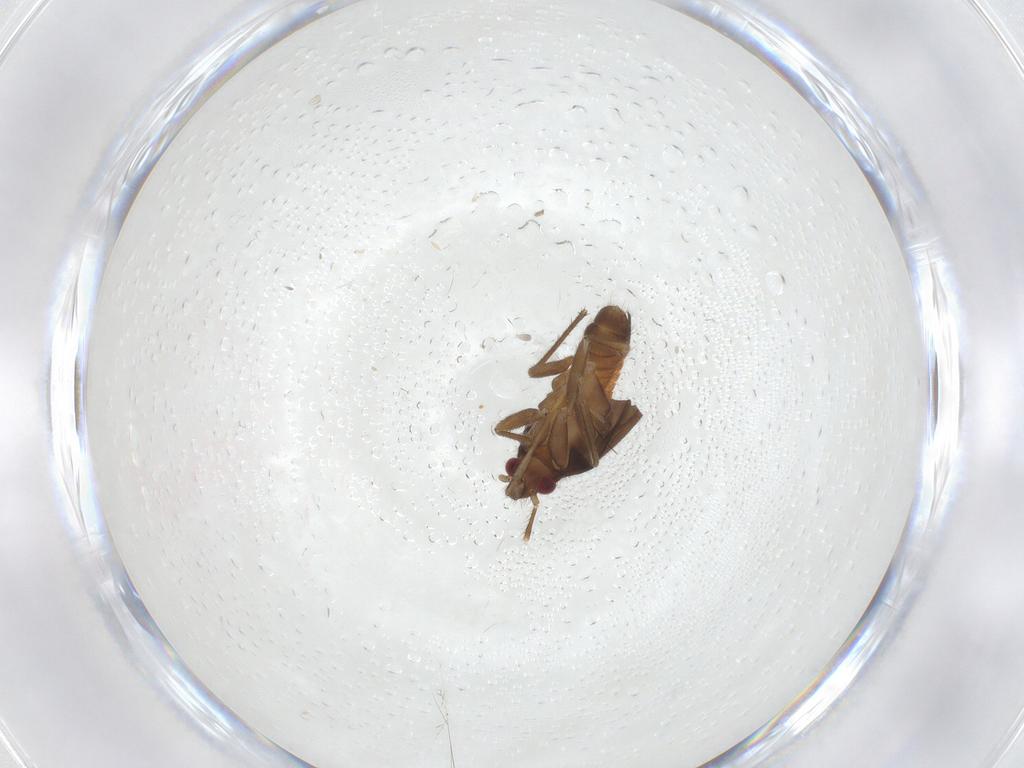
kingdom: Animalia
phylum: Arthropoda
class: Insecta
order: Hemiptera
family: Ceratocombidae
